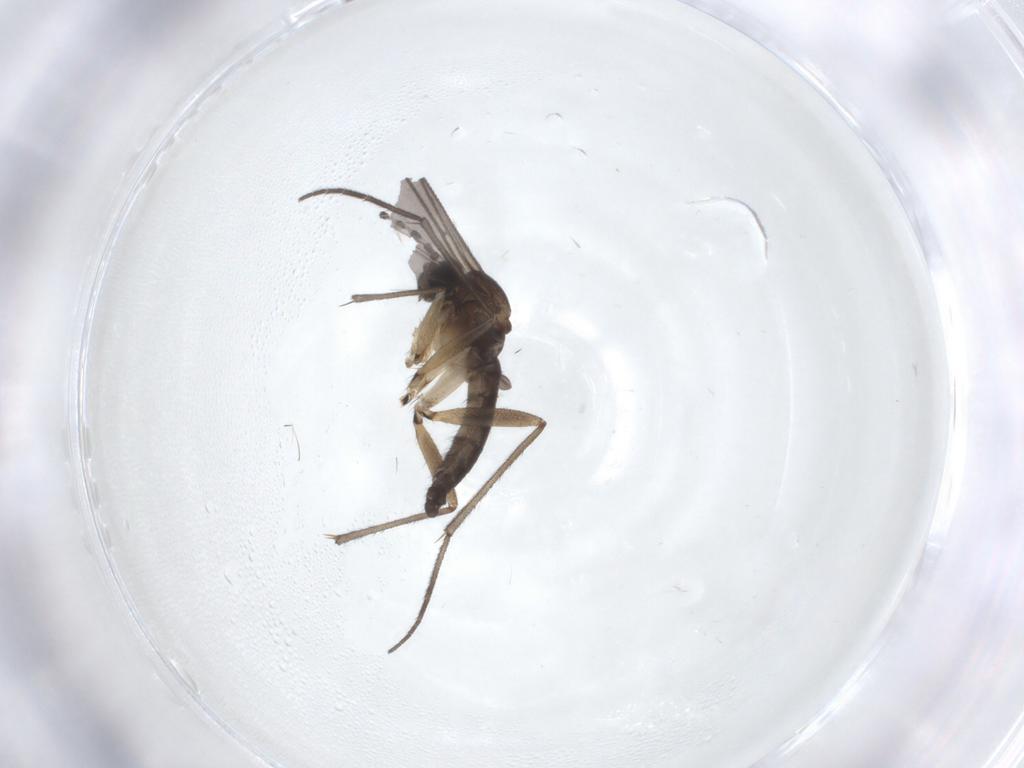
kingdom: Animalia
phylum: Arthropoda
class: Insecta
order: Diptera
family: Sciaridae
